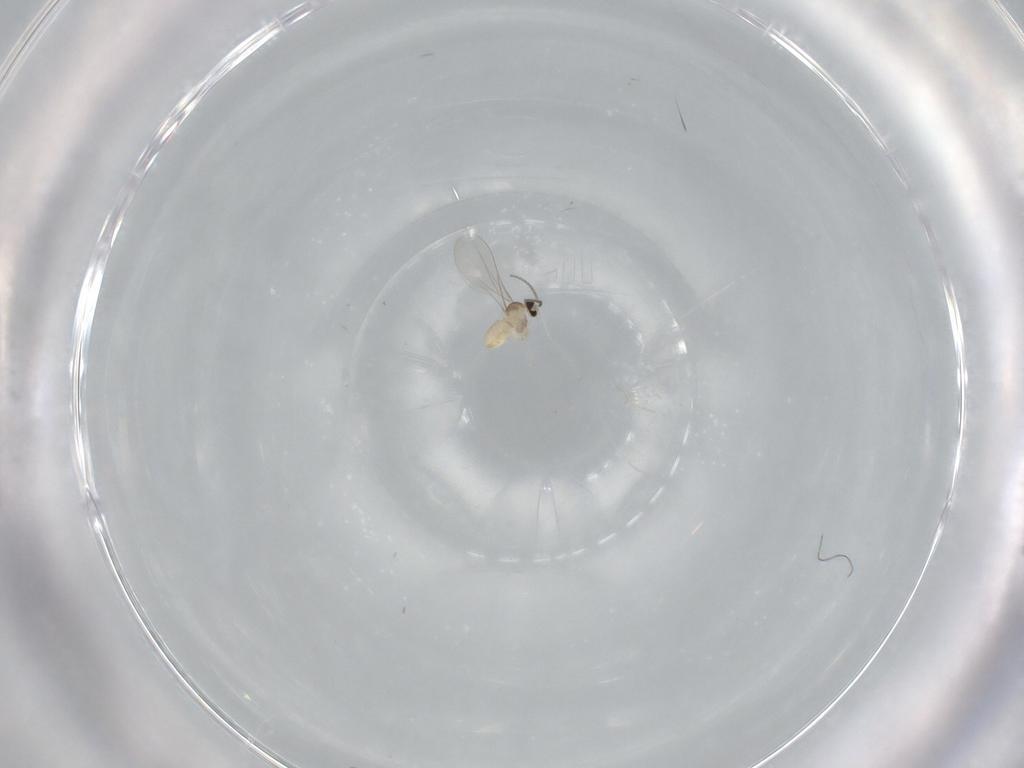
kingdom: Animalia
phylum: Arthropoda
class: Insecta
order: Diptera
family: Cecidomyiidae
